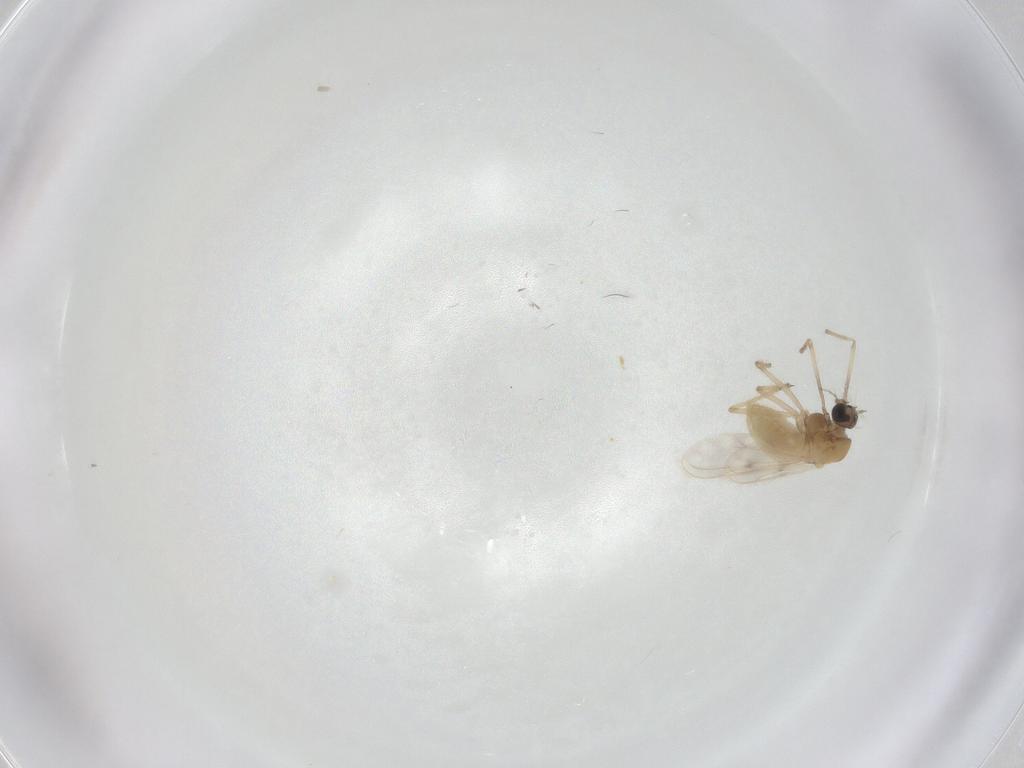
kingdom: Animalia
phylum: Arthropoda
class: Insecta
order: Diptera
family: Chironomidae
